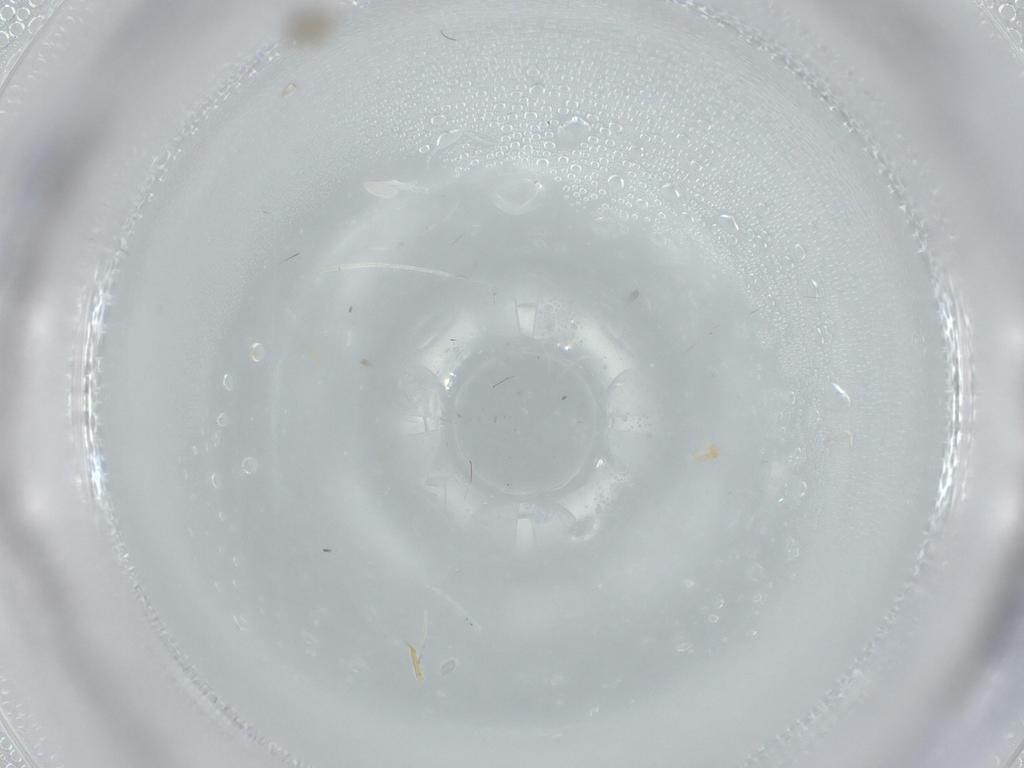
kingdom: Animalia
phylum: Arthropoda
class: Insecta
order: Hymenoptera
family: Aphelinidae
